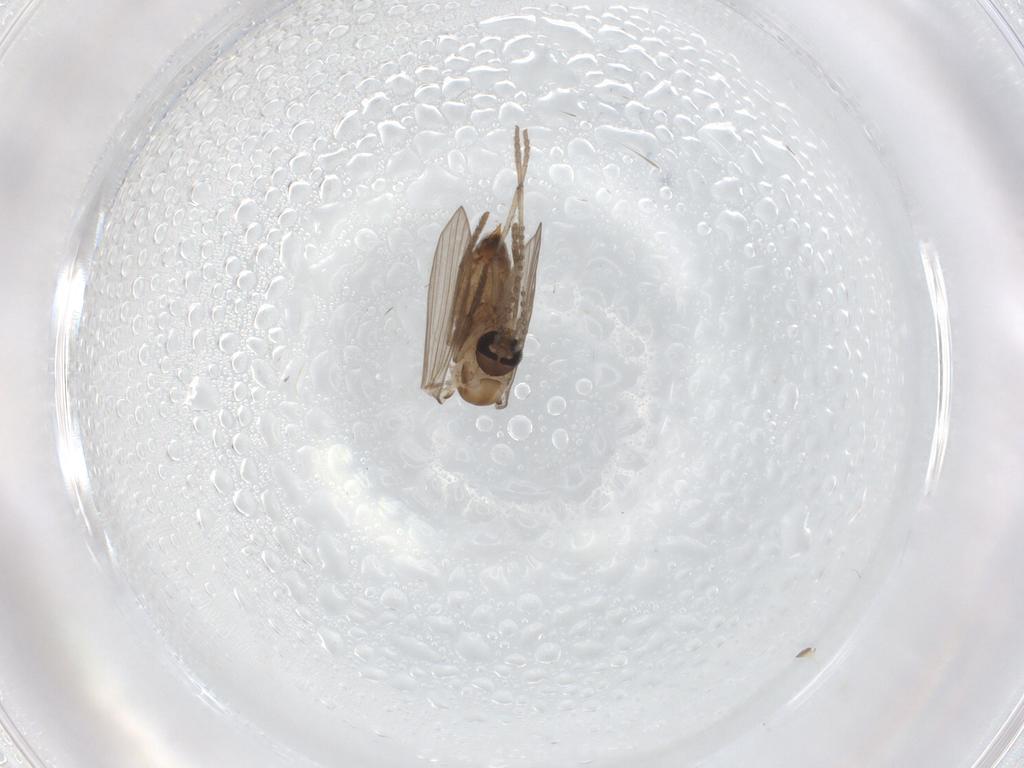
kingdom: Animalia
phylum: Arthropoda
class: Insecta
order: Diptera
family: Psychodidae
